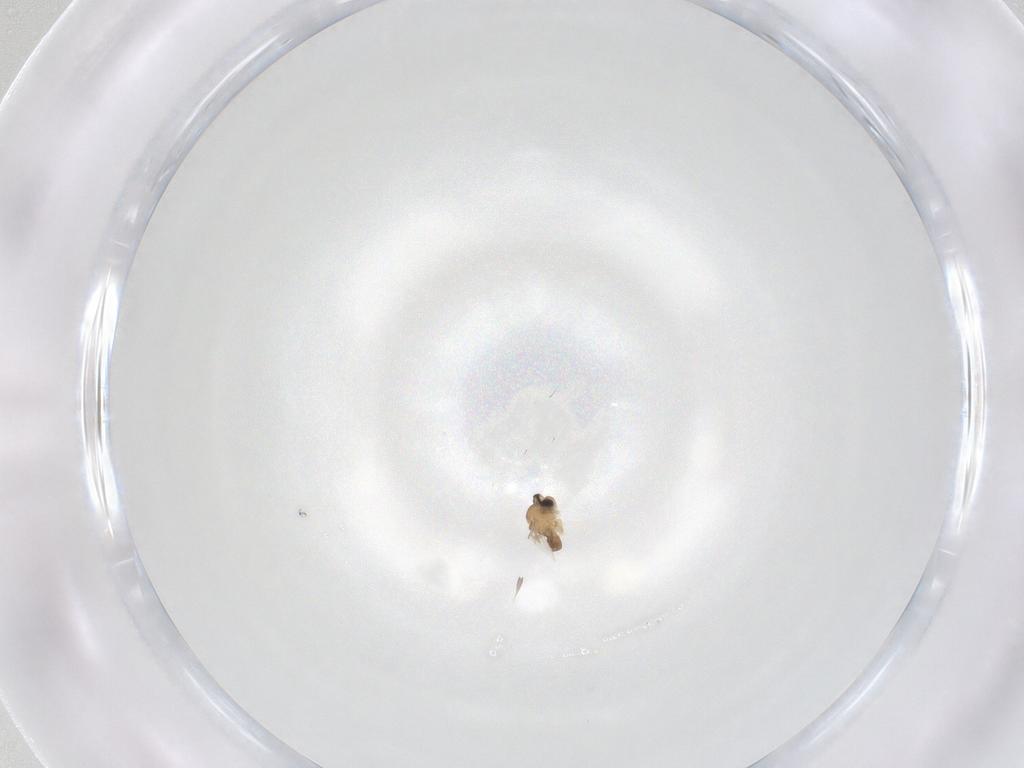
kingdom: Animalia
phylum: Arthropoda
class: Insecta
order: Diptera
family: Cecidomyiidae
